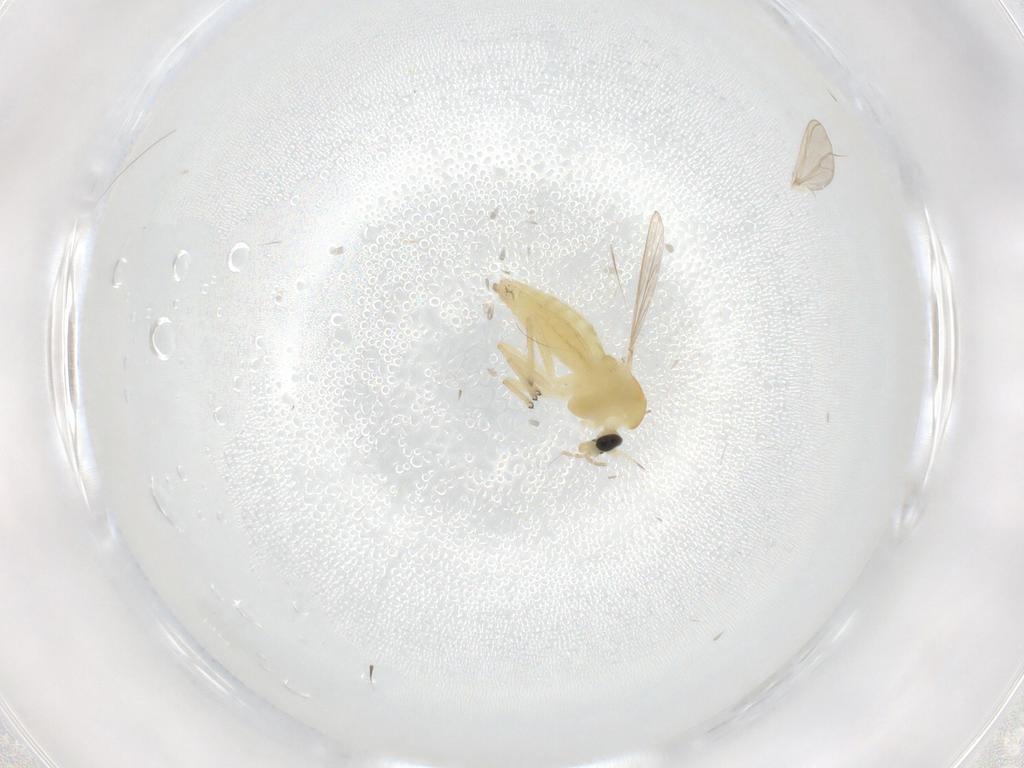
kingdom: Animalia
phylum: Arthropoda
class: Insecta
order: Diptera
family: Chironomidae
